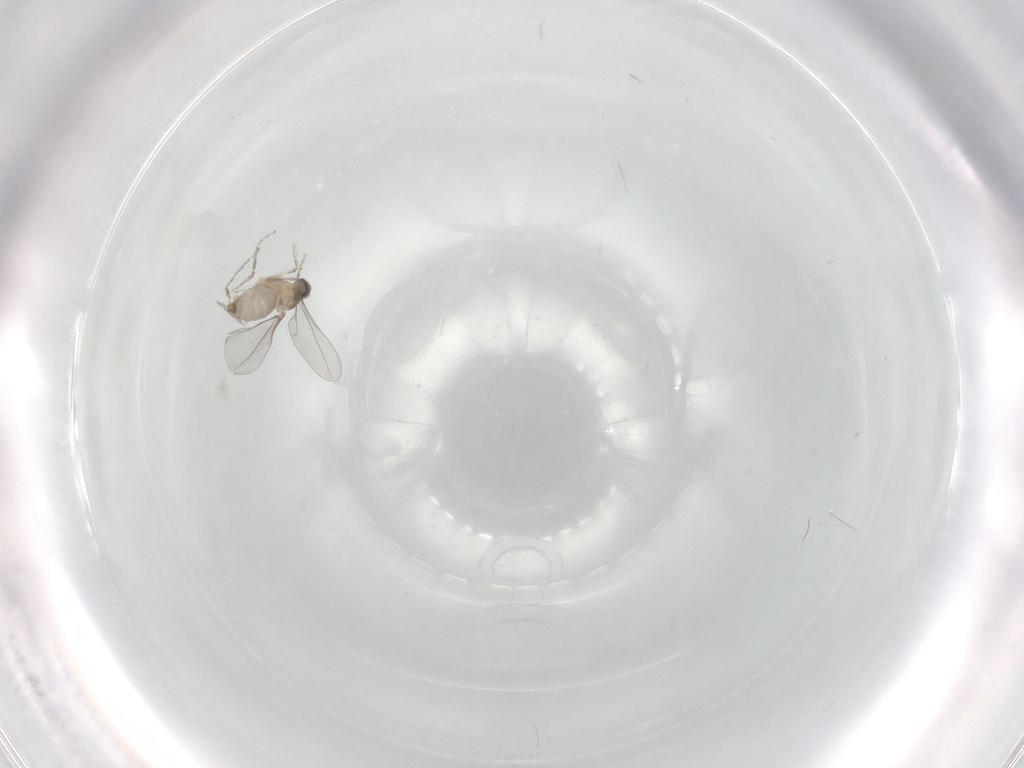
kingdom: Animalia
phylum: Arthropoda
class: Insecta
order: Diptera
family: Cecidomyiidae
